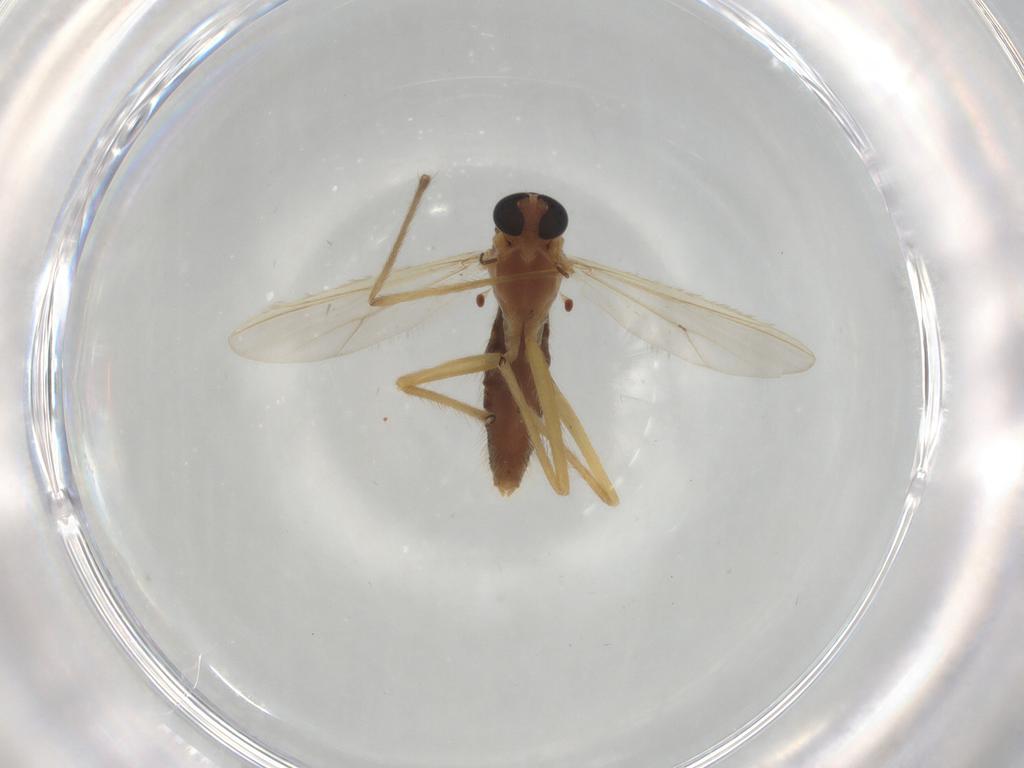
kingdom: Animalia
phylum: Arthropoda
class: Insecta
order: Diptera
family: Chironomidae
